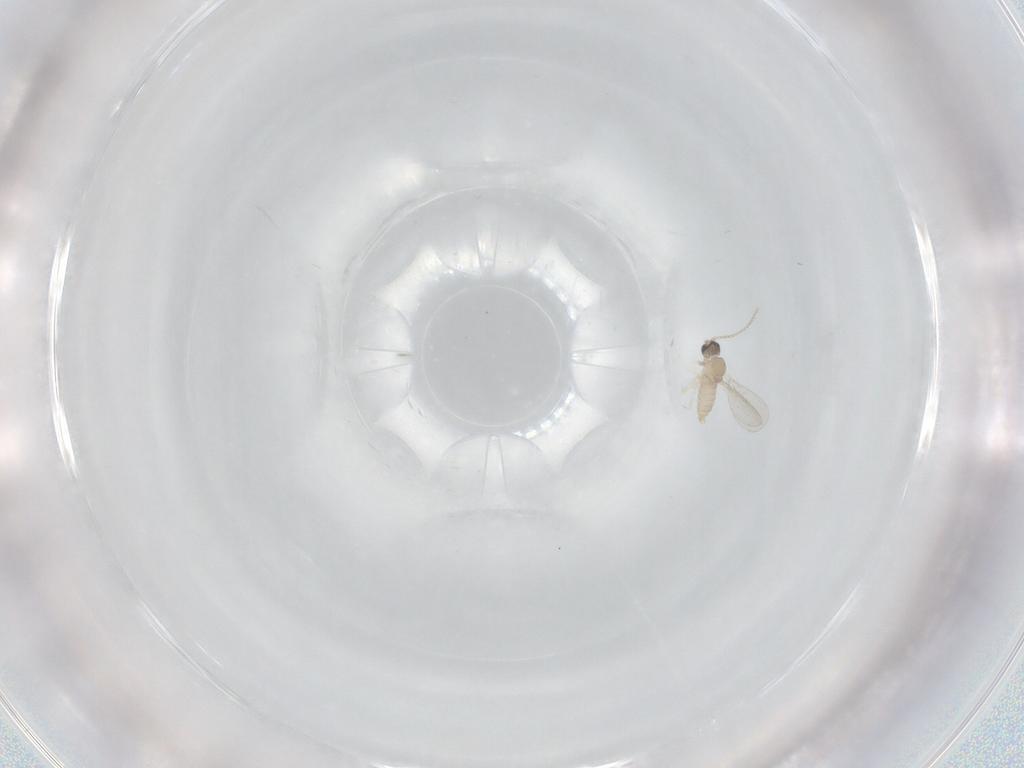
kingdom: Animalia
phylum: Arthropoda
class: Insecta
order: Diptera
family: Cecidomyiidae
